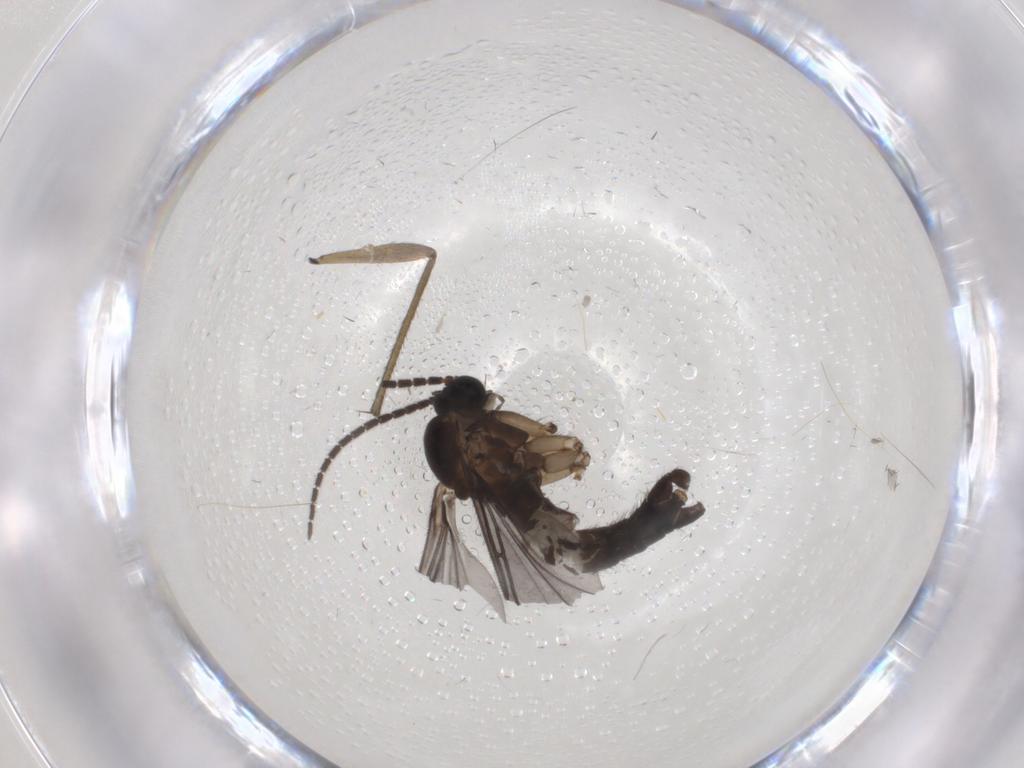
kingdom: Animalia
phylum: Arthropoda
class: Insecta
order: Diptera
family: Sciaridae
